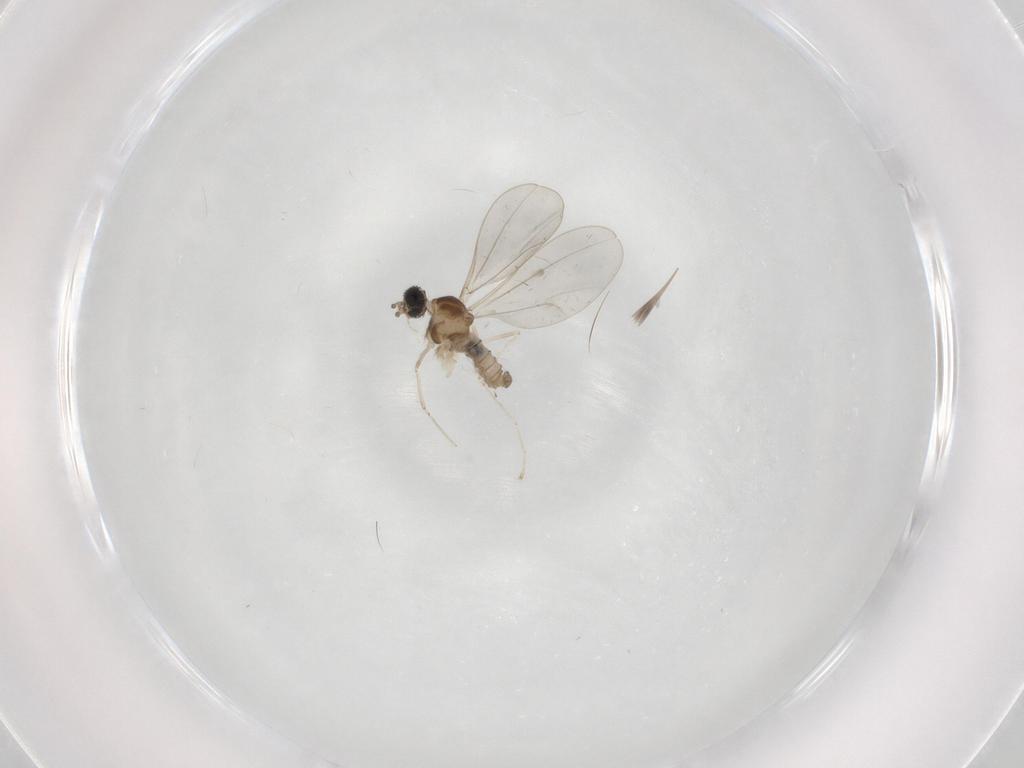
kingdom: Animalia
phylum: Arthropoda
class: Insecta
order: Diptera
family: Cecidomyiidae
